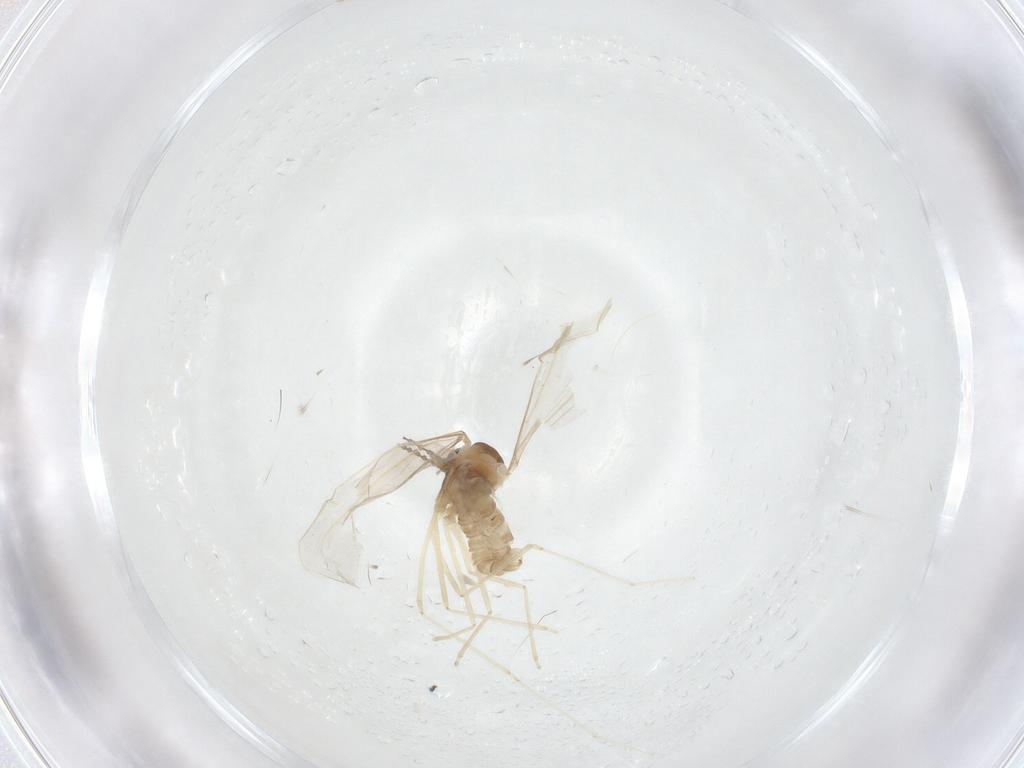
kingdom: Animalia
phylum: Arthropoda
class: Insecta
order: Diptera
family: Cecidomyiidae
